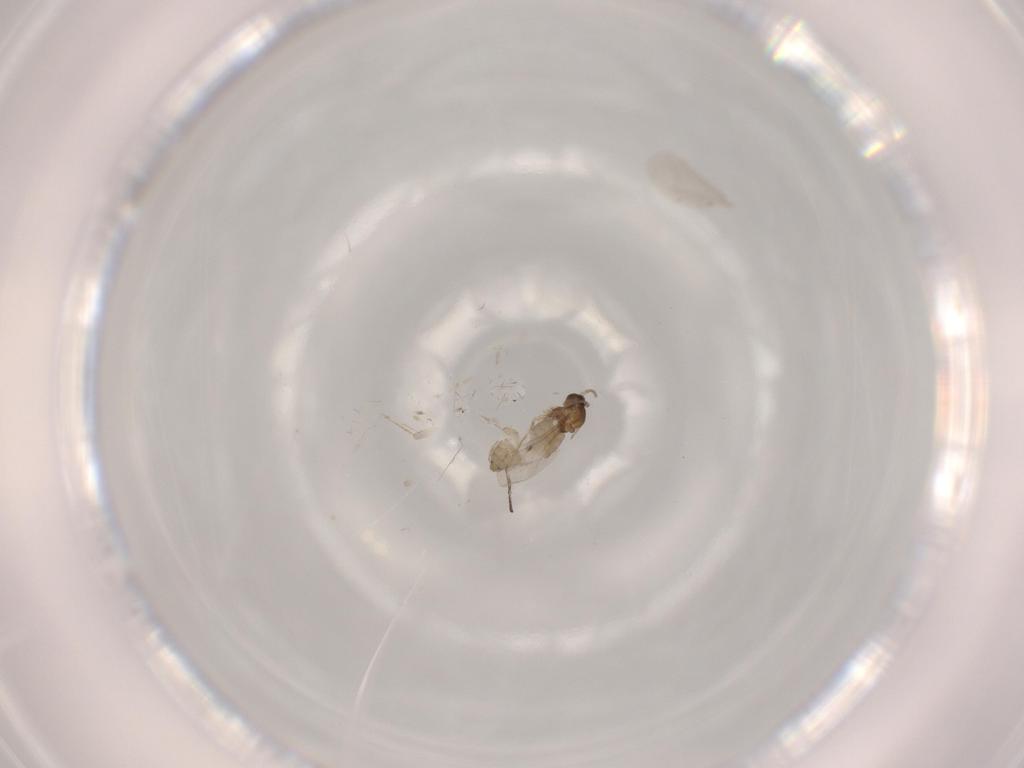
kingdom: Animalia
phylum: Arthropoda
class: Insecta
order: Diptera
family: Cecidomyiidae
